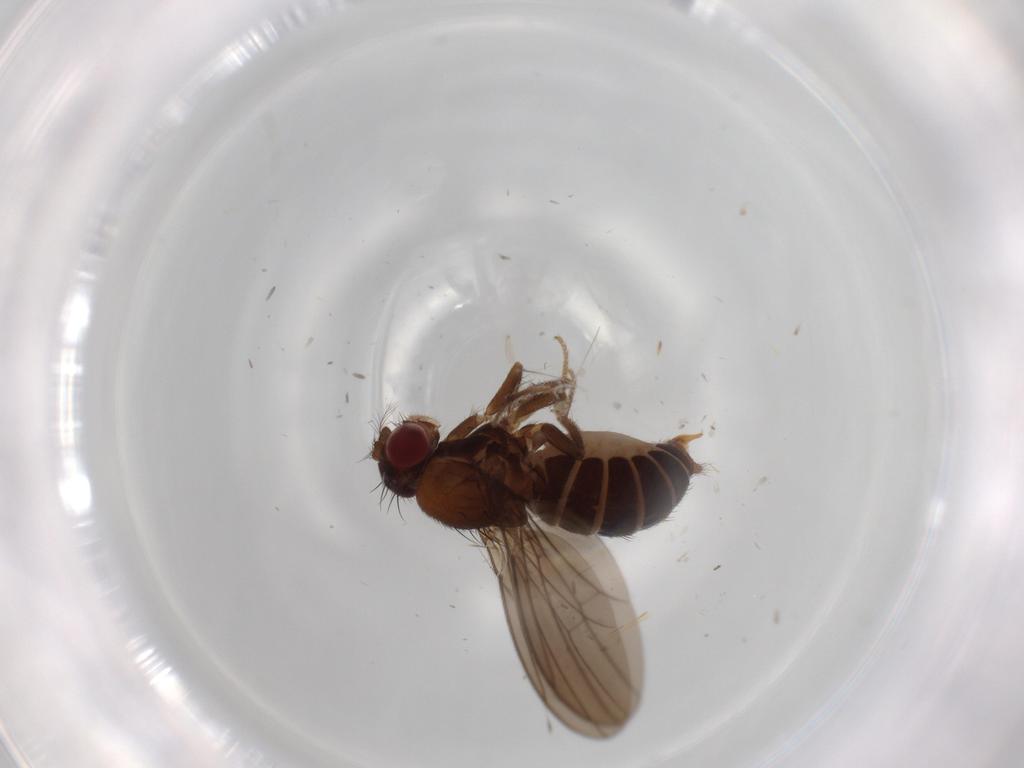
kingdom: Animalia
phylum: Arthropoda
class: Insecta
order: Diptera
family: Drosophilidae
